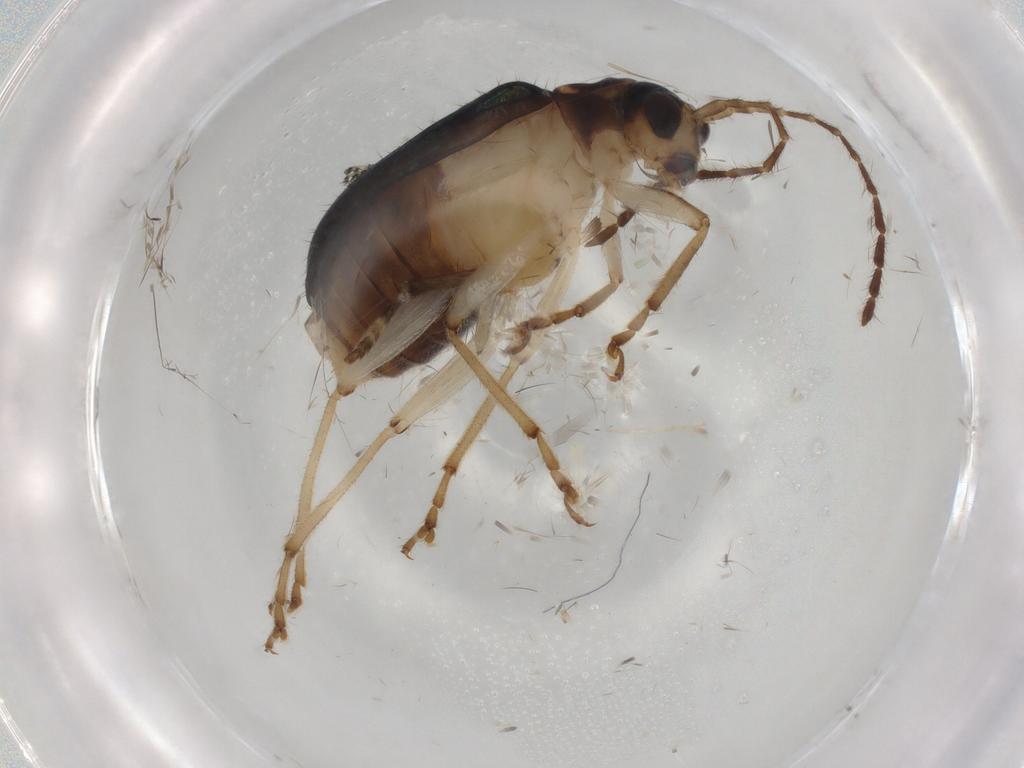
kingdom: Animalia
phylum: Arthropoda
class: Insecta
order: Coleoptera
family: Chrysomelidae
